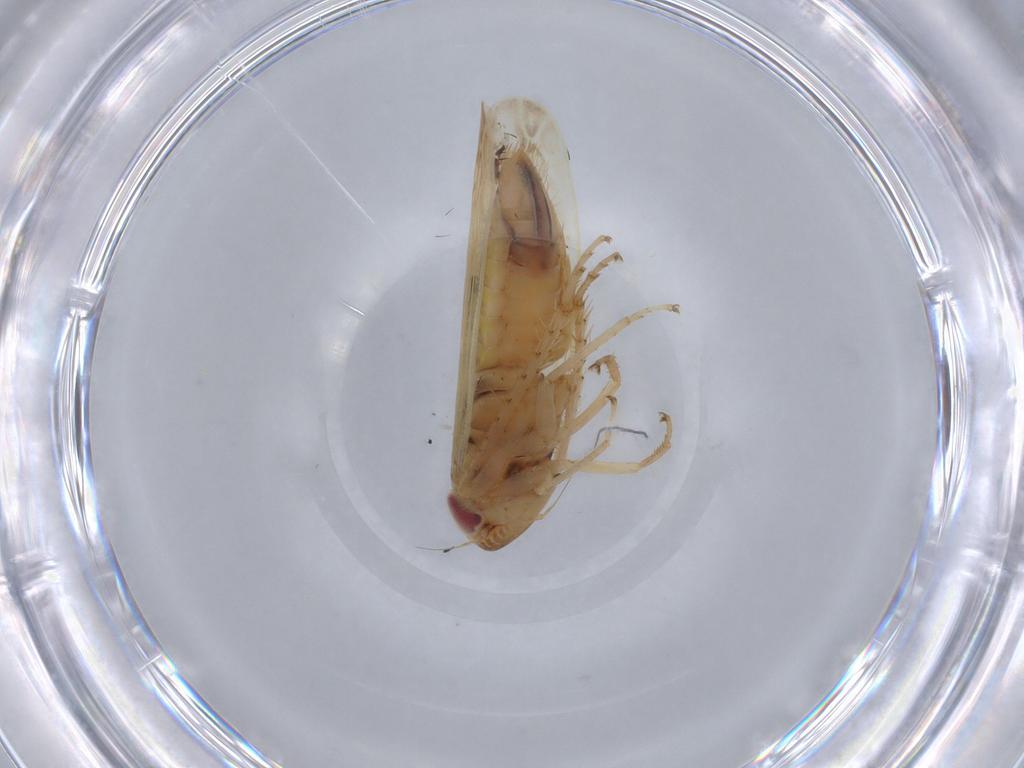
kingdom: Animalia
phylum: Arthropoda
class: Insecta
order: Hemiptera
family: Cicadellidae
